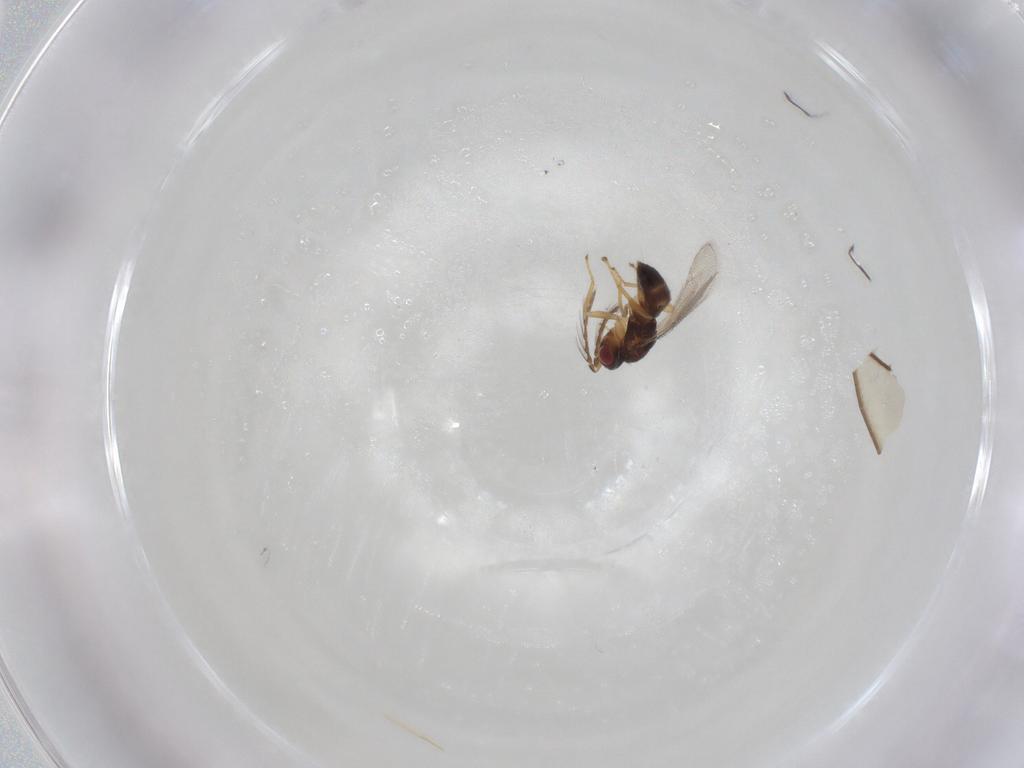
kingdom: Animalia
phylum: Arthropoda
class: Insecta
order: Hymenoptera
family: Eulophidae
